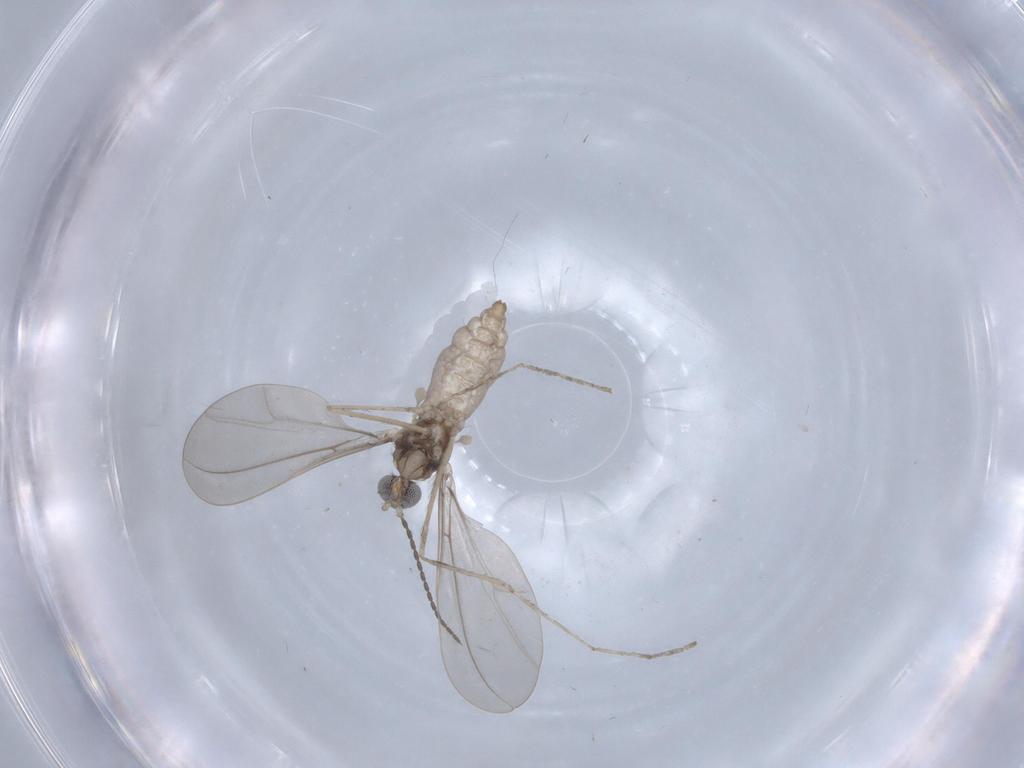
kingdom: Animalia
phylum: Arthropoda
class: Insecta
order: Diptera
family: Cecidomyiidae
